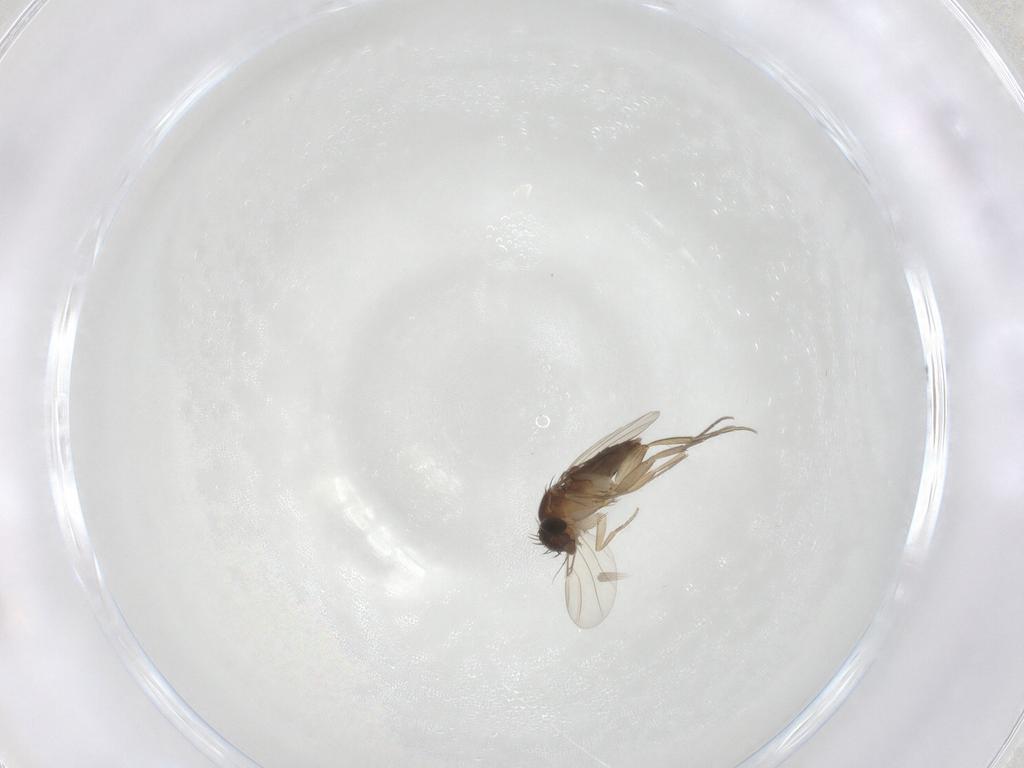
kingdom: Animalia
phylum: Arthropoda
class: Insecta
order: Diptera
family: Phoridae
